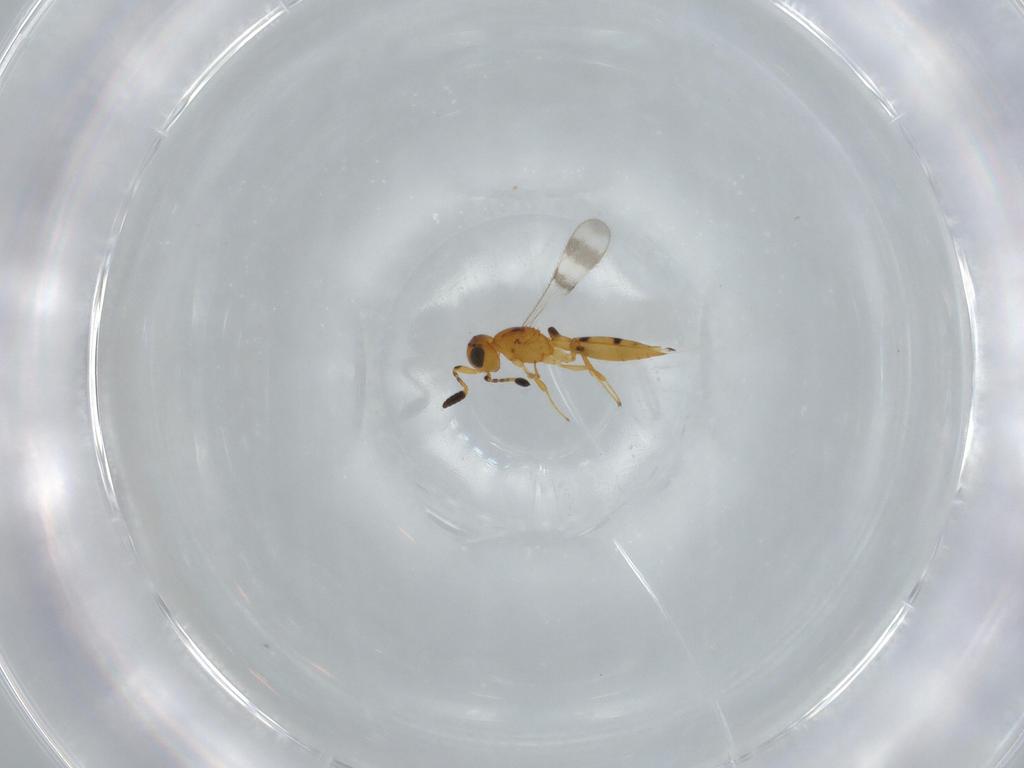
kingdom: Animalia
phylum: Arthropoda
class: Insecta
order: Hymenoptera
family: Scelionidae
